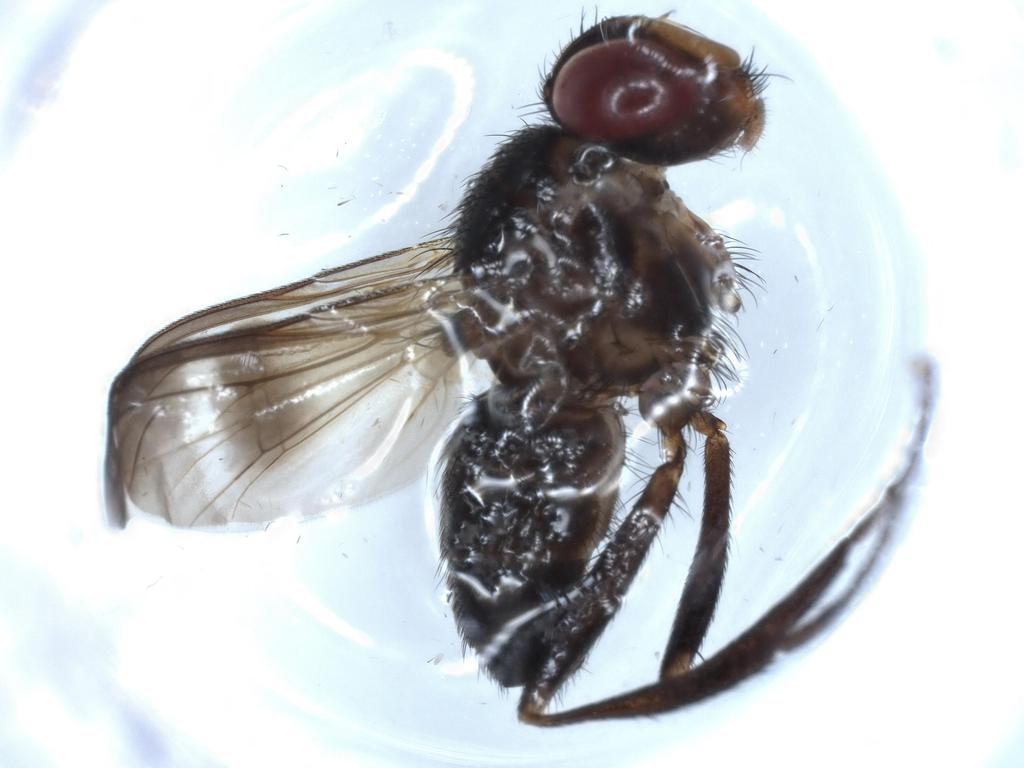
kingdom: Animalia
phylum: Arthropoda
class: Insecta
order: Diptera
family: Calliphoridae
